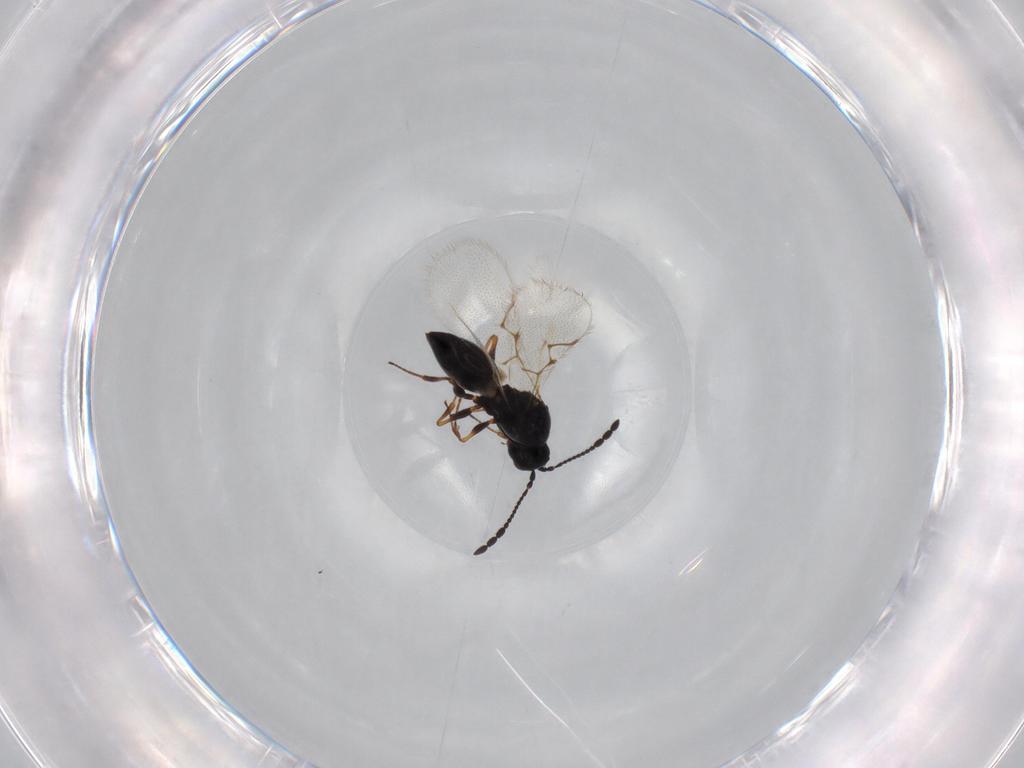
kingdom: Animalia
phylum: Arthropoda
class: Insecta
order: Hymenoptera
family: Figitidae
